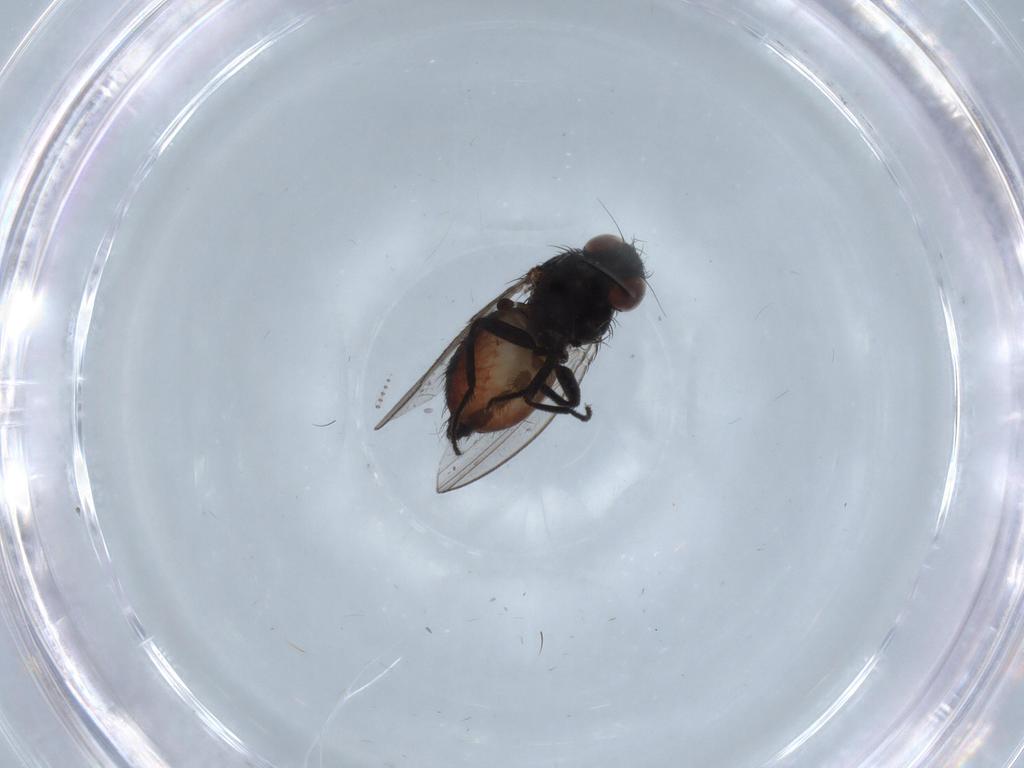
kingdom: Animalia
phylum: Arthropoda
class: Insecta
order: Diptera
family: Milichiidae
